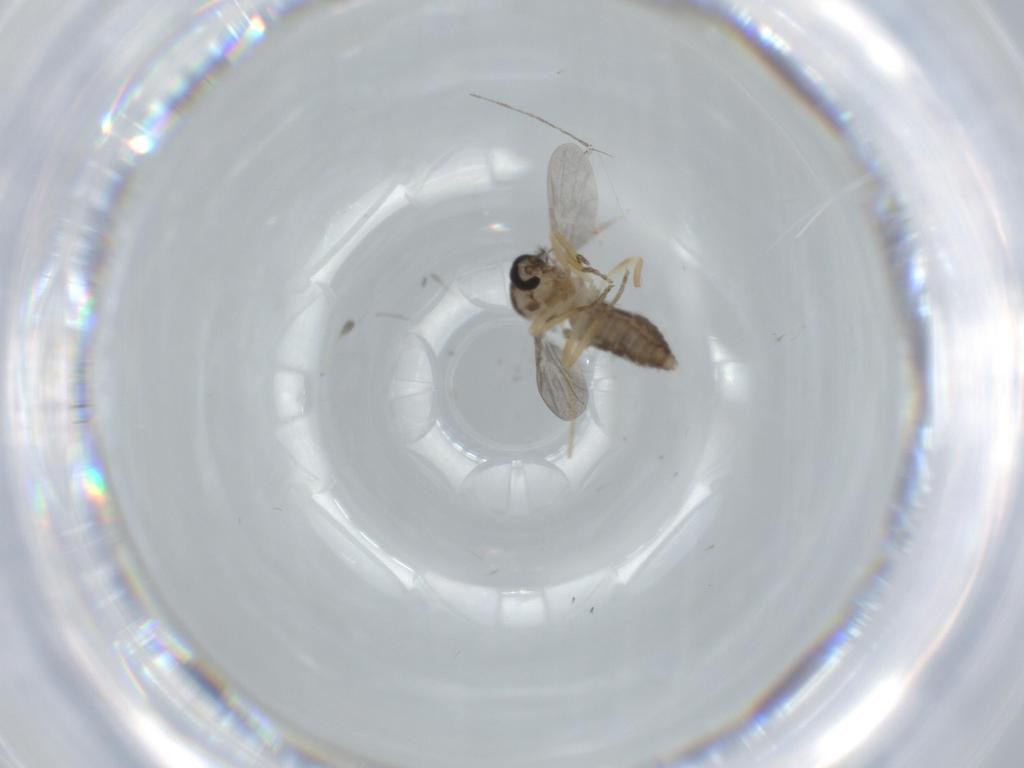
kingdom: Animalia
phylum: Arthropoda
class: Insecta
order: Diptera
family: Ceratopogonidae
